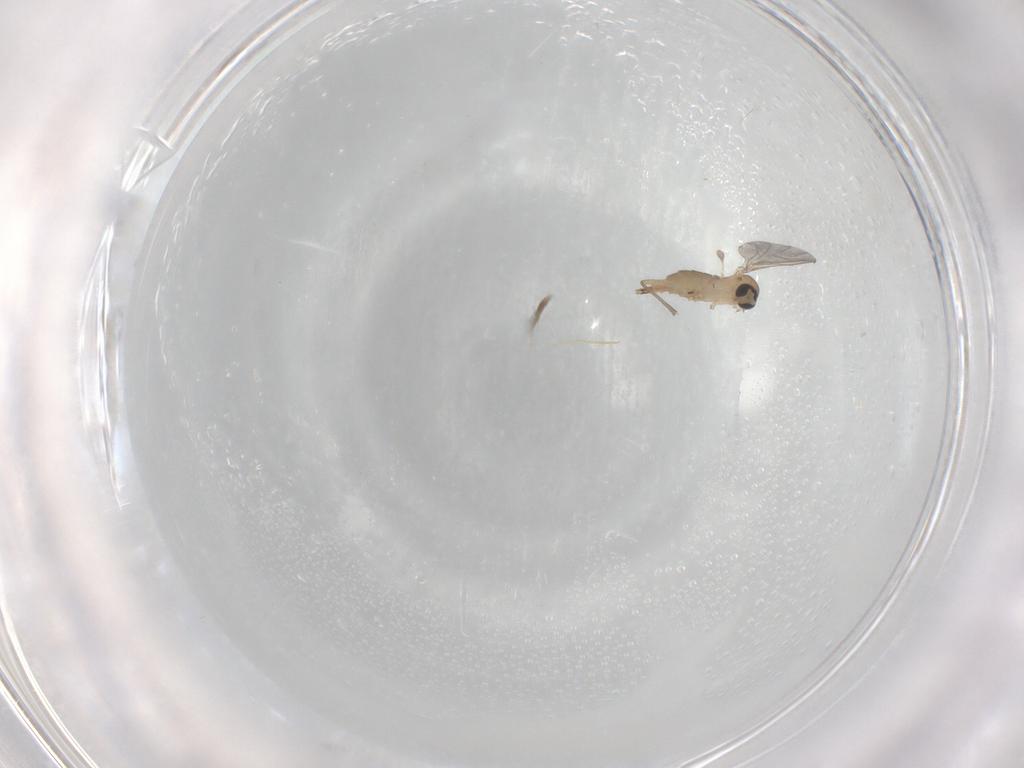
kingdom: Animalia
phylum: Arthropoda
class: Insecta
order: Diptera
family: Sciaridae
